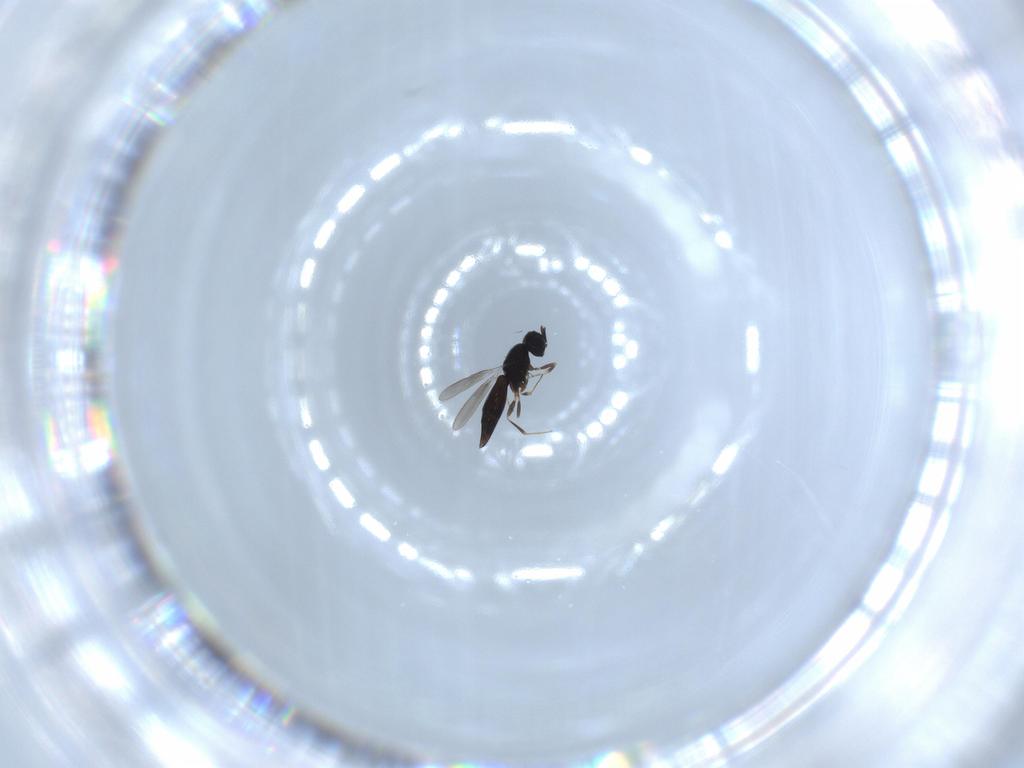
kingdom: Animalia
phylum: Arthropoda
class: Insecta
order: Hymenoptera
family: Scelionidae
